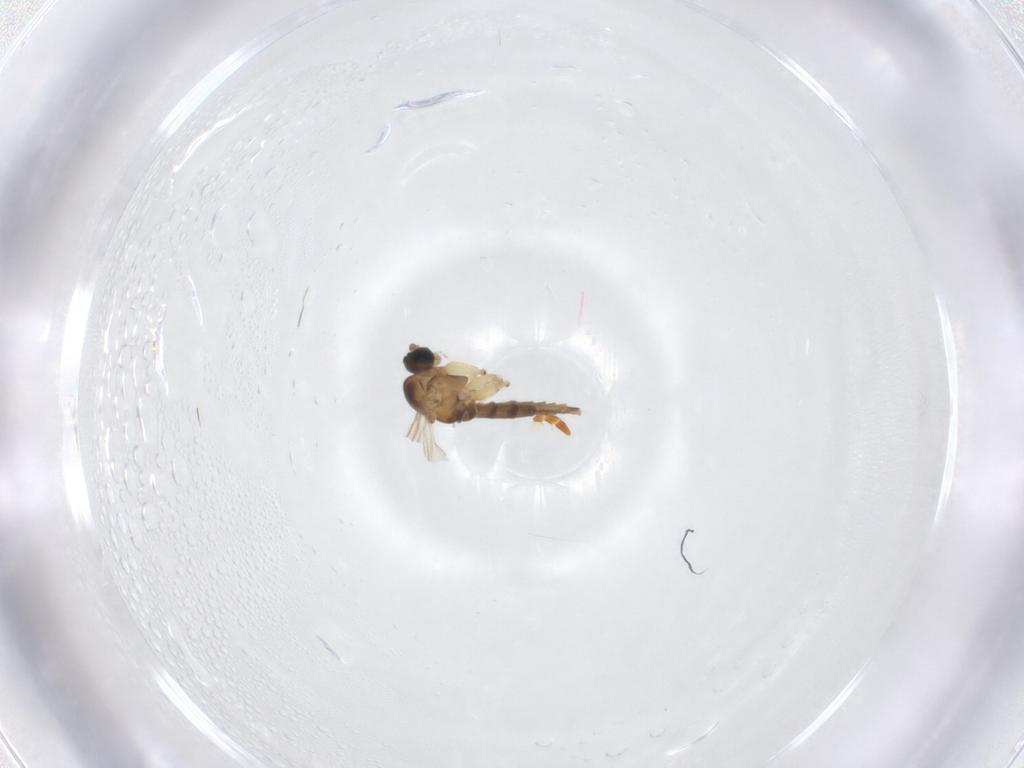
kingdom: Animalia
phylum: Arthropoda
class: Insecta
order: Diptera
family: Sciaridae
